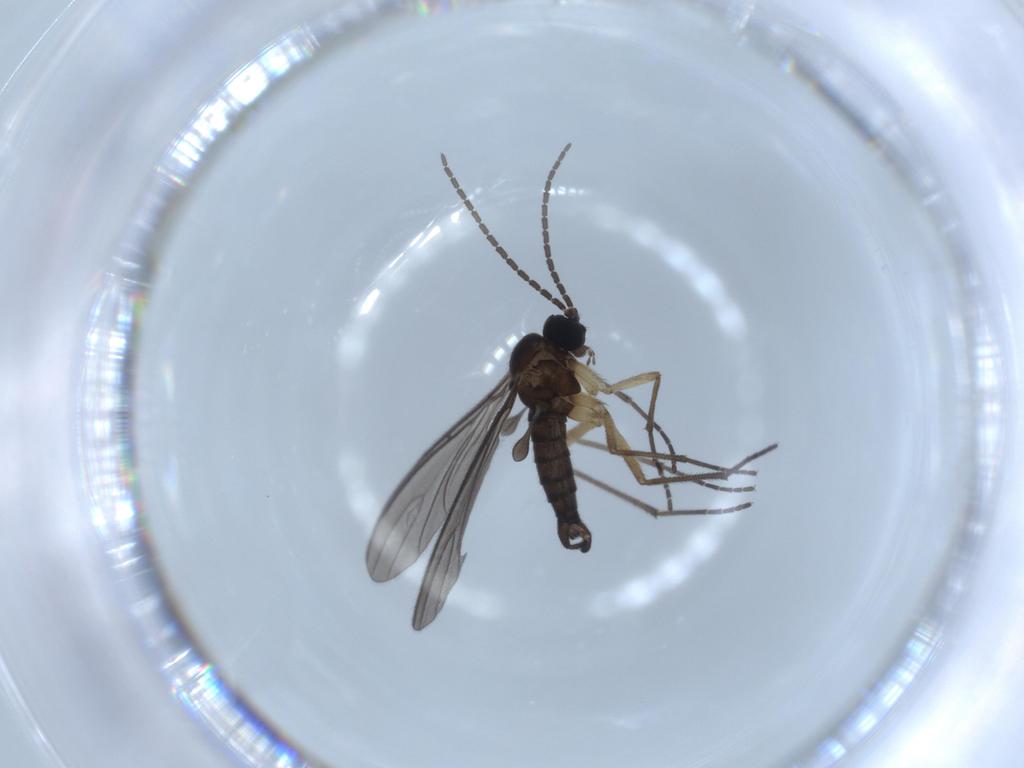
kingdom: Animalia
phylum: Arthropoda
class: Insecta
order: Diptera
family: Sciaridae
